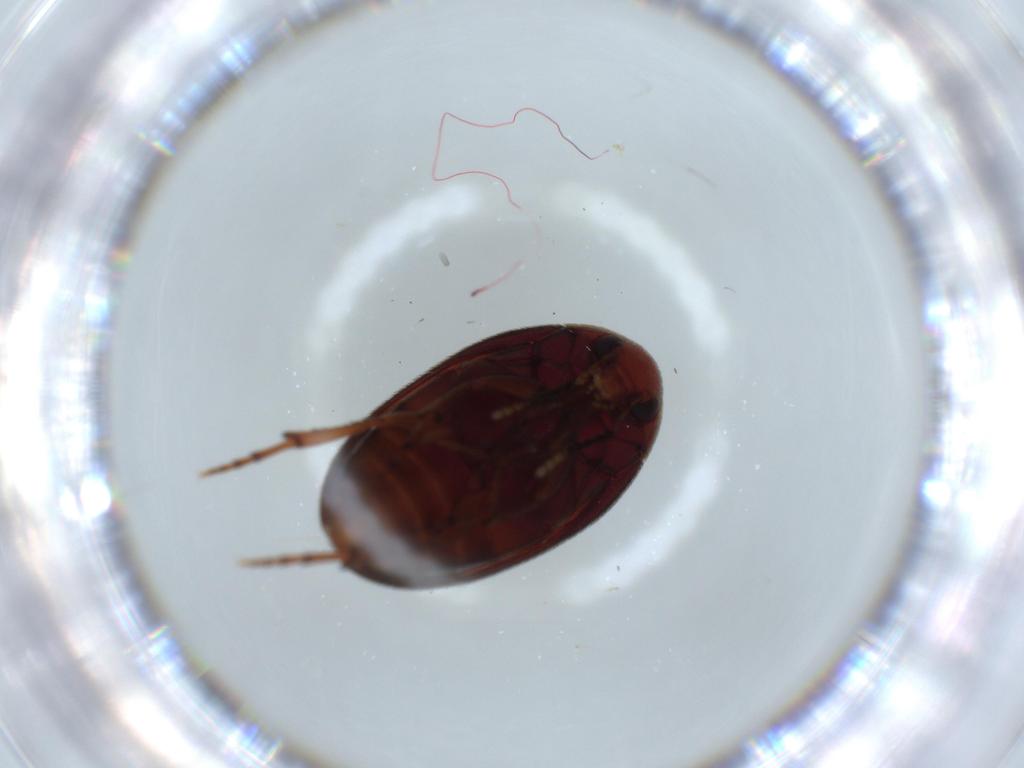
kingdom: Animalia
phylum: Arthropoda
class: Insecta
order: Coleoptera
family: Eucinetidae
